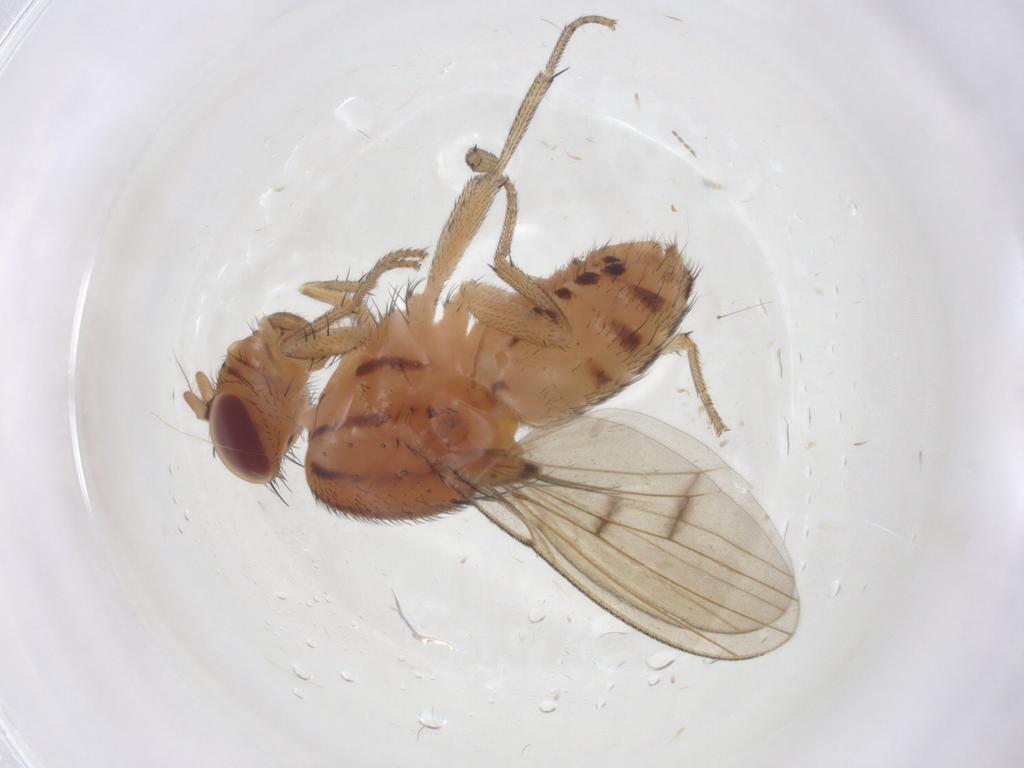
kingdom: Animalia
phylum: Arthropoda
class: Insecta
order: Diptera
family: Lauxaniidae
